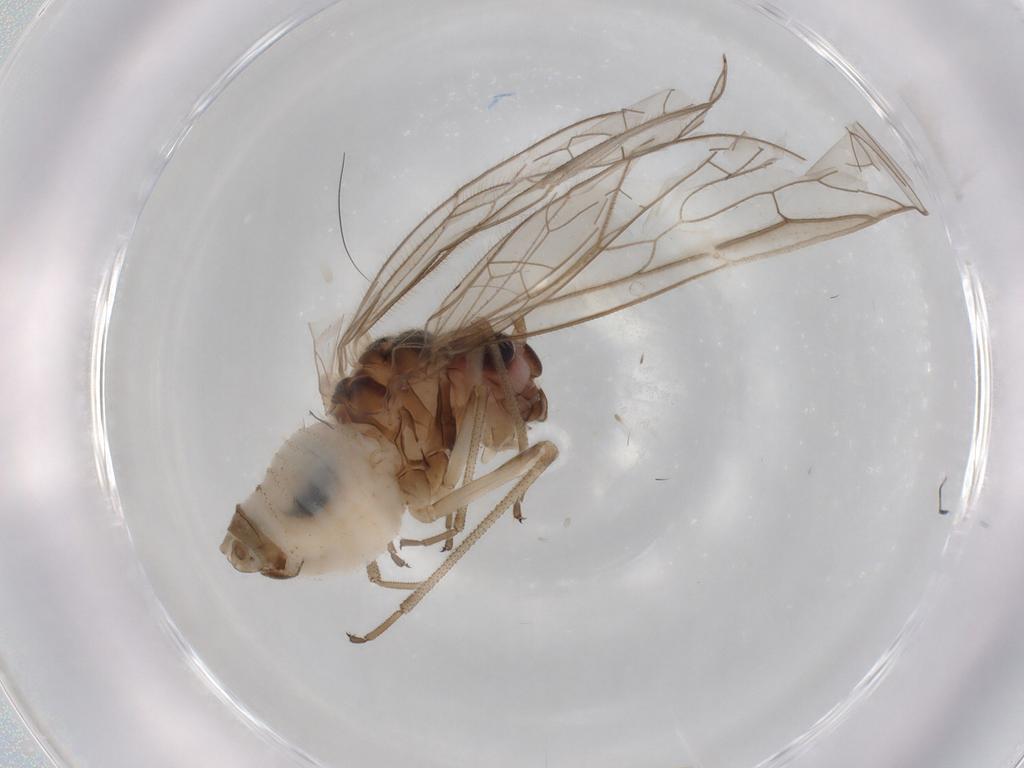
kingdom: Animalia
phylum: Arthropoda
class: Insecta
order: Psocodea
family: Stenopsocidae
